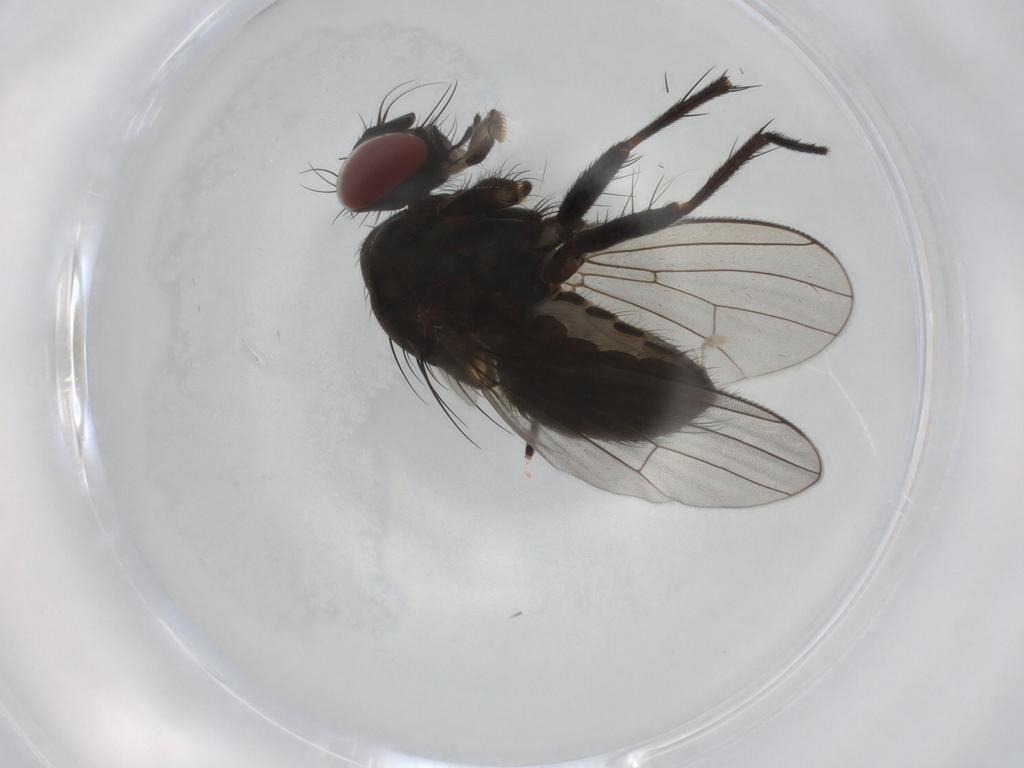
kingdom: Animalia
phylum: Arthropoda
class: Insecta
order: Diptera
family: Muscidae
